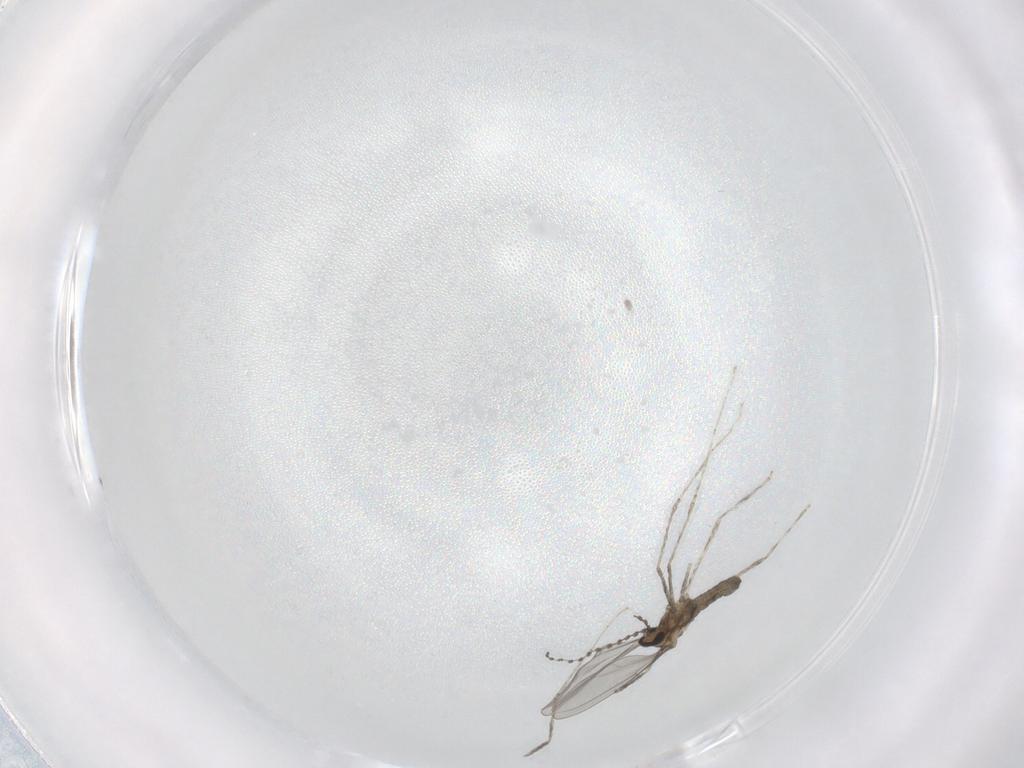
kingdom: Animalia
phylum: Arthropoda
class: Insecta
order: Diptera
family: Cecidomyiidae
